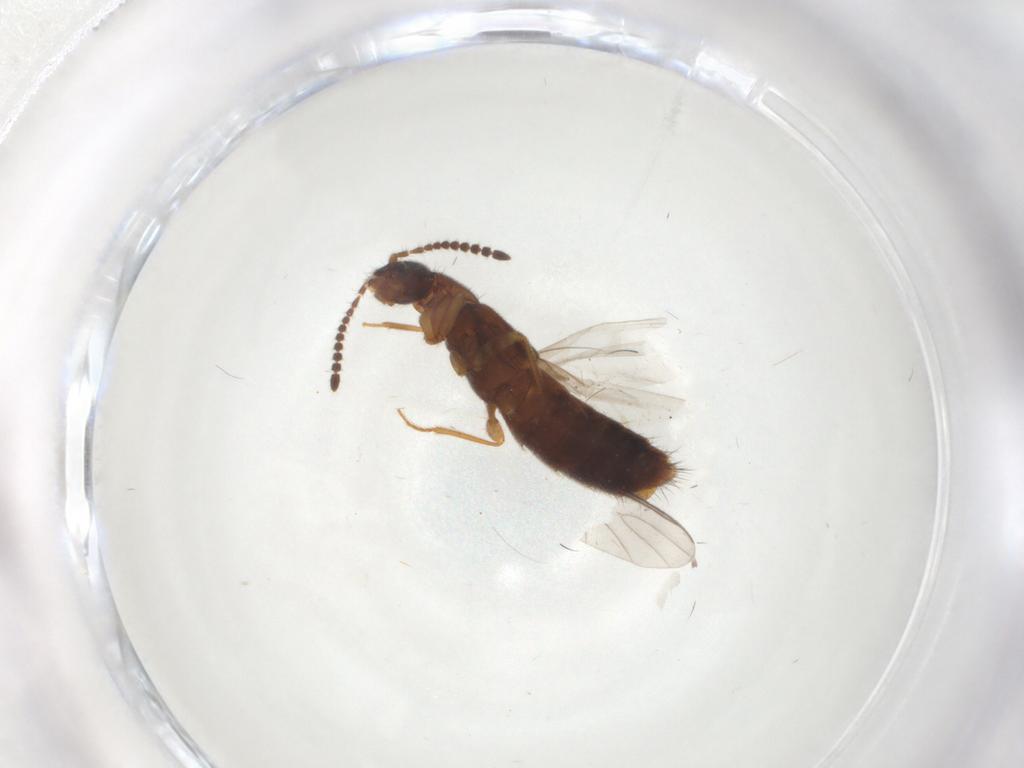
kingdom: Animalia
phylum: Arthropoda
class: Insecta
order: Coleoptera
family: Staphylinidae
